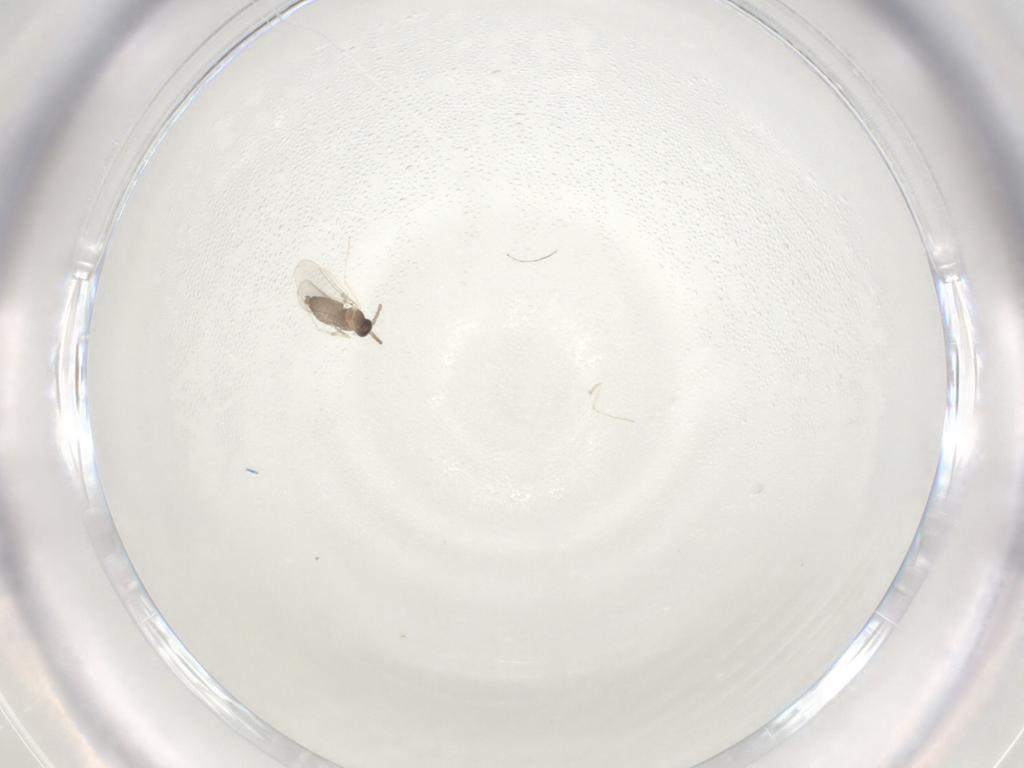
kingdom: Animalia
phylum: Arthropoda
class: Insecta
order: Diptera
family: Cecidomyiidae
